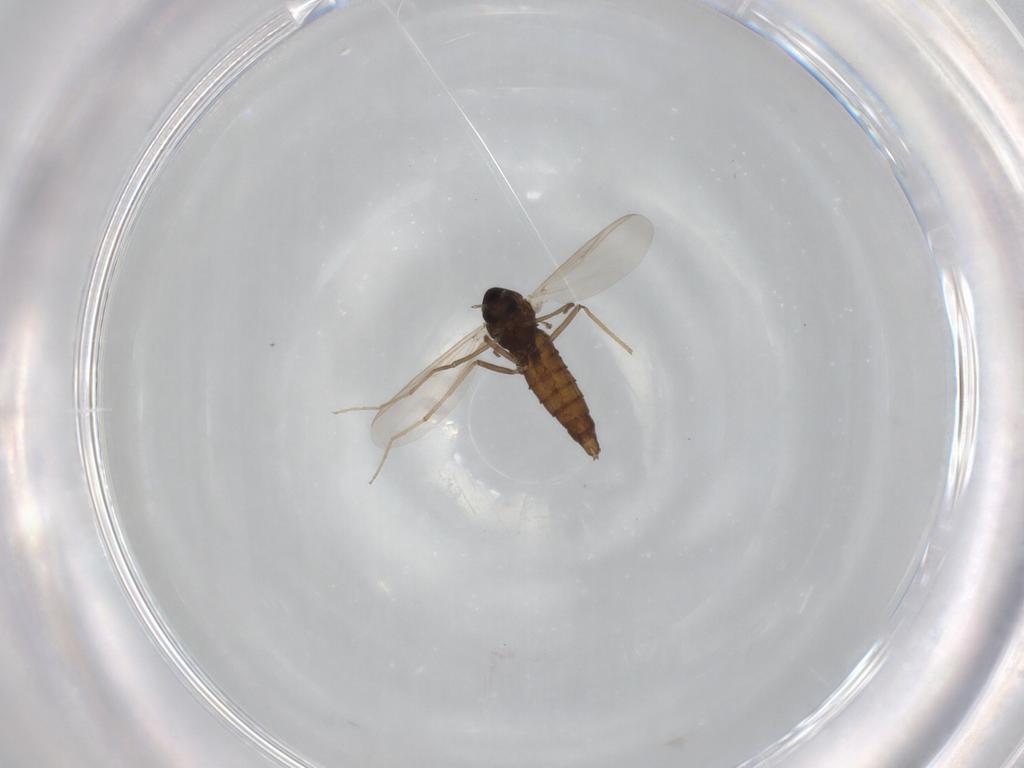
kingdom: Animalia
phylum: Arthropoda
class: Insecta
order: Diptera
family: Chironomidae
